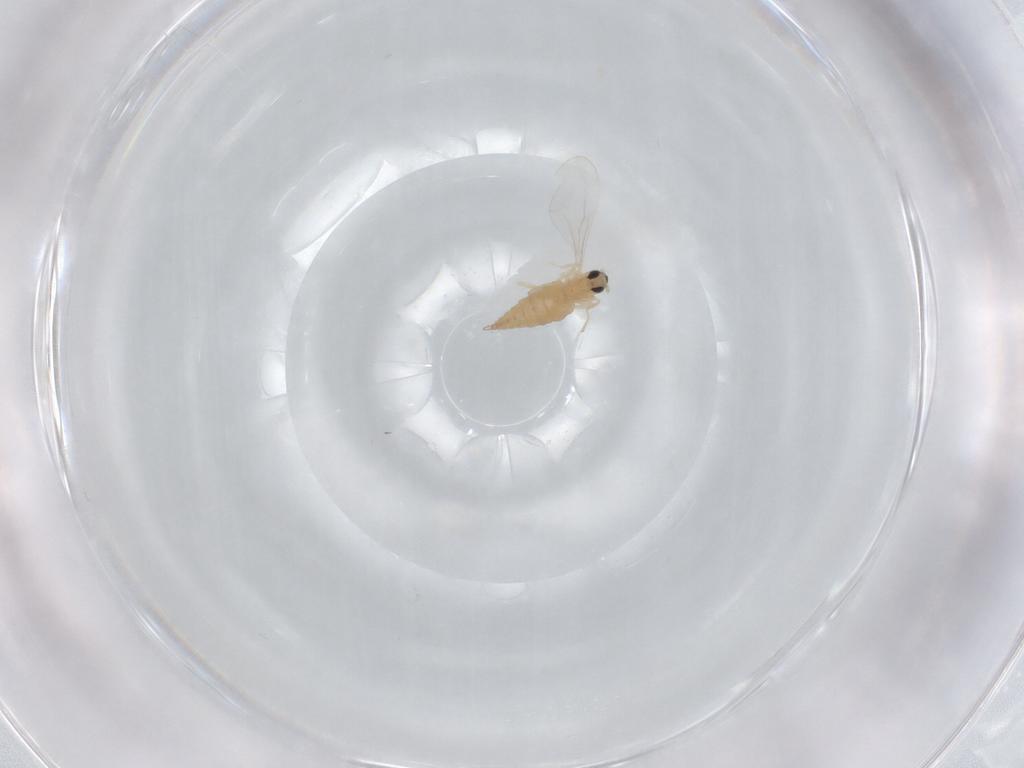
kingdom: Animalia
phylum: Arthropoda
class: Insecta
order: Diptera
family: Cecidomyiidae
